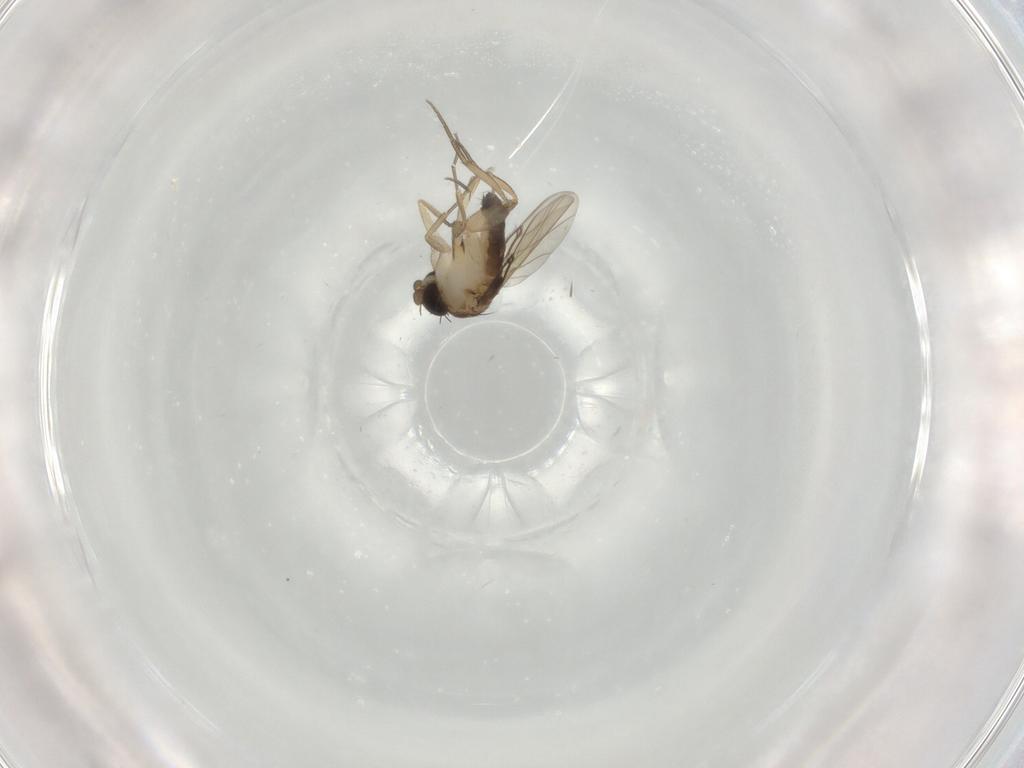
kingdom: Animalia
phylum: Arthropoda
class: Insecta
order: Diptera
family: Phoridae
